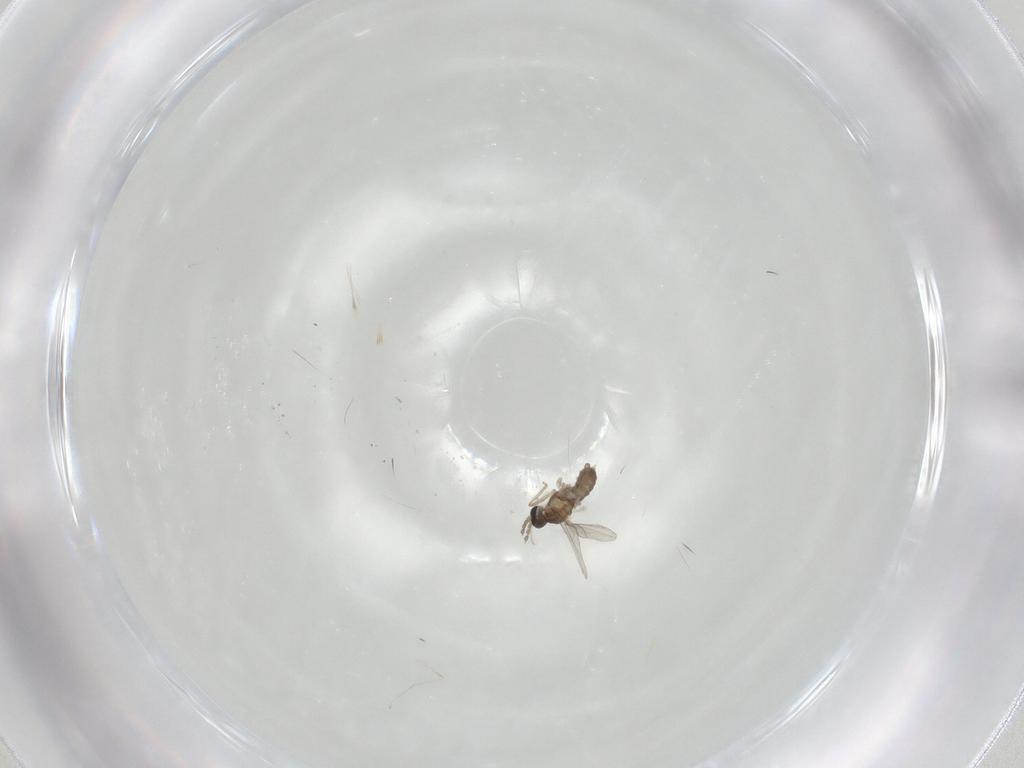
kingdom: Animalia
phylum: Arthropoda
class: Insecta
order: Diptera
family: Cecidomyiidae
